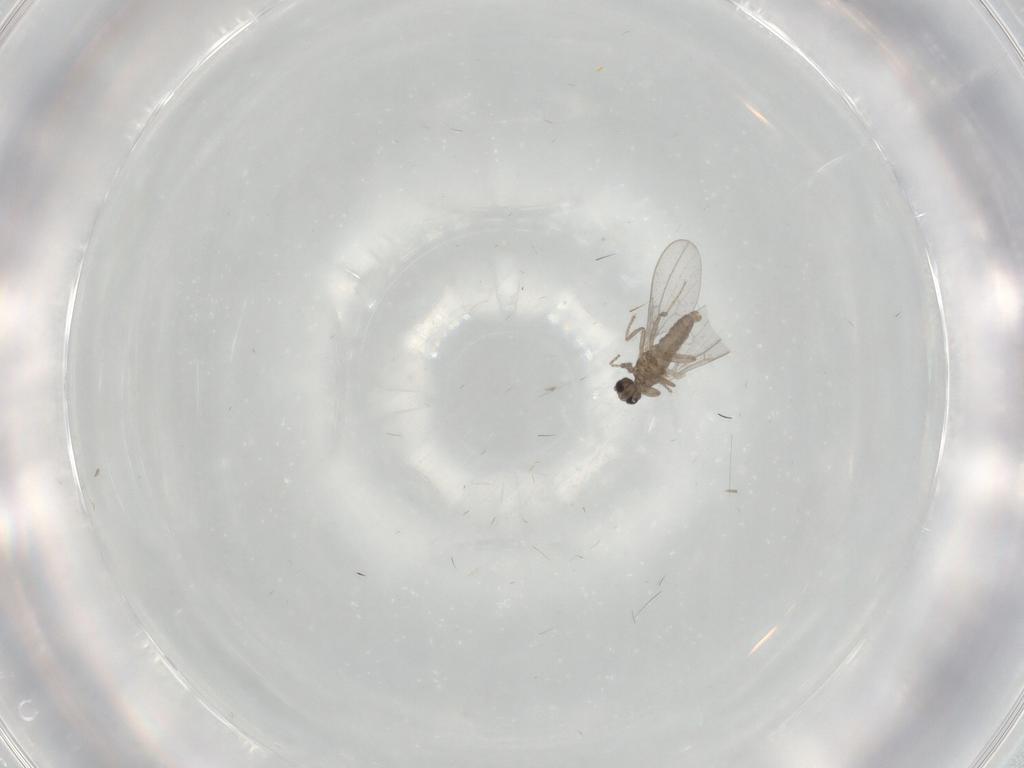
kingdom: Animalia
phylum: Arthropoda
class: Insecta
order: Diptera
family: Cecidomyiidae
